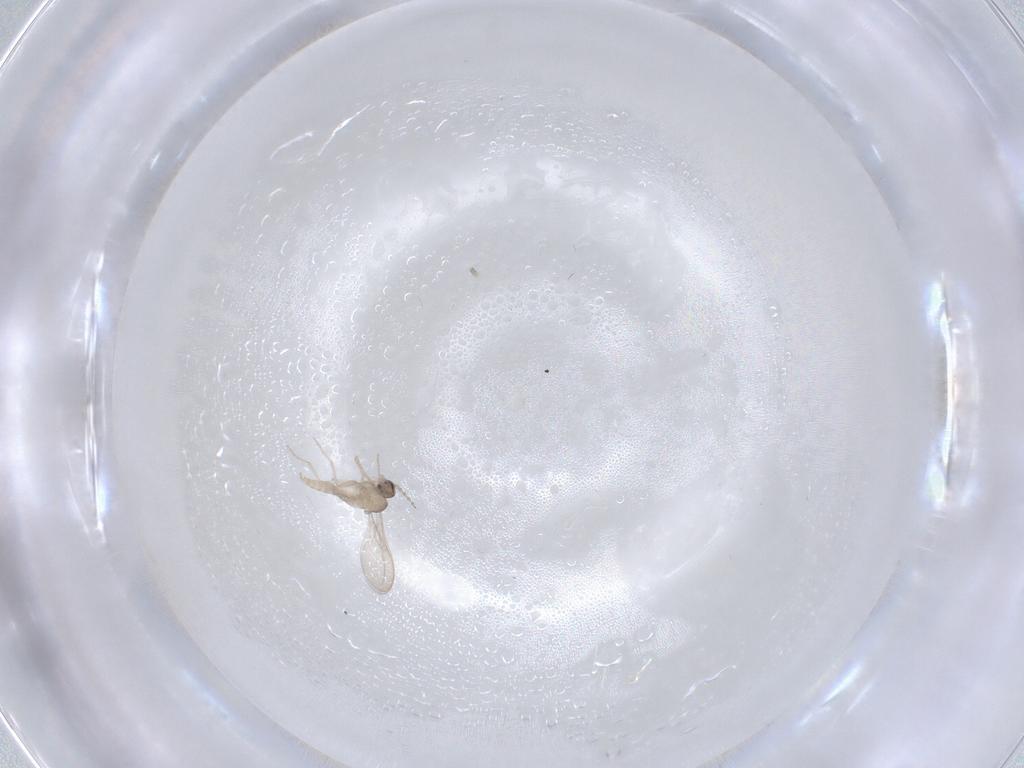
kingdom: Animalia
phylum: Arthropoda
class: Insecta
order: Diptera
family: Cecidomyiidae
